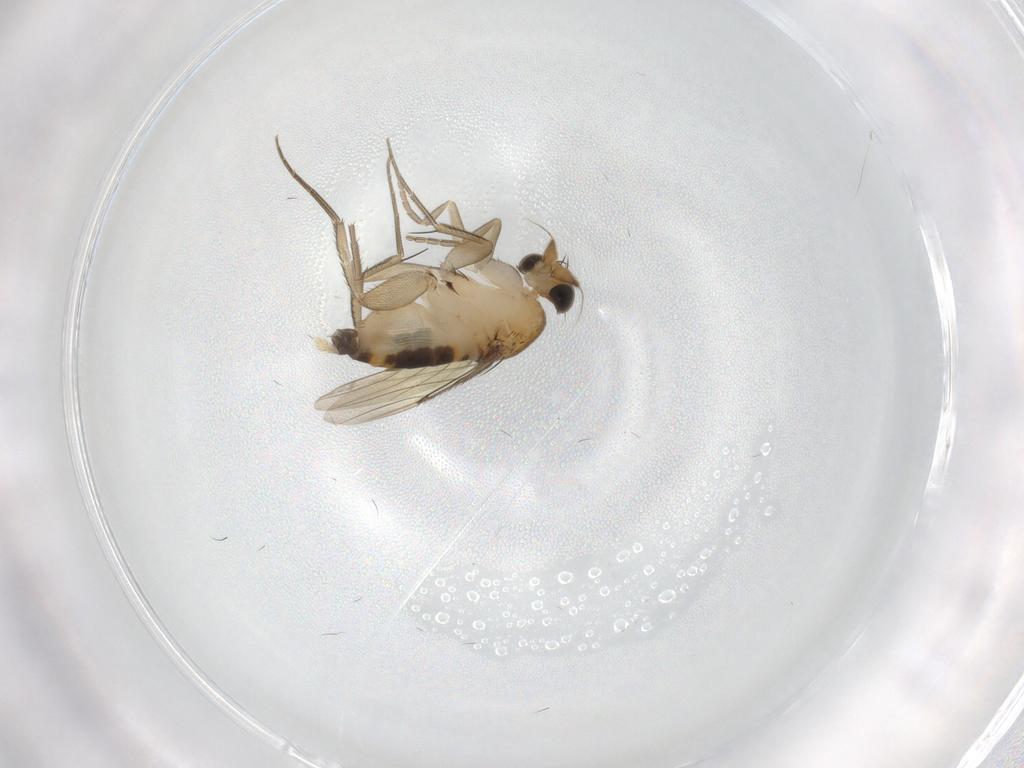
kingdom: Animalia
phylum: Arthropoda
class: Insecta
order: Diptera
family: Phoridae
